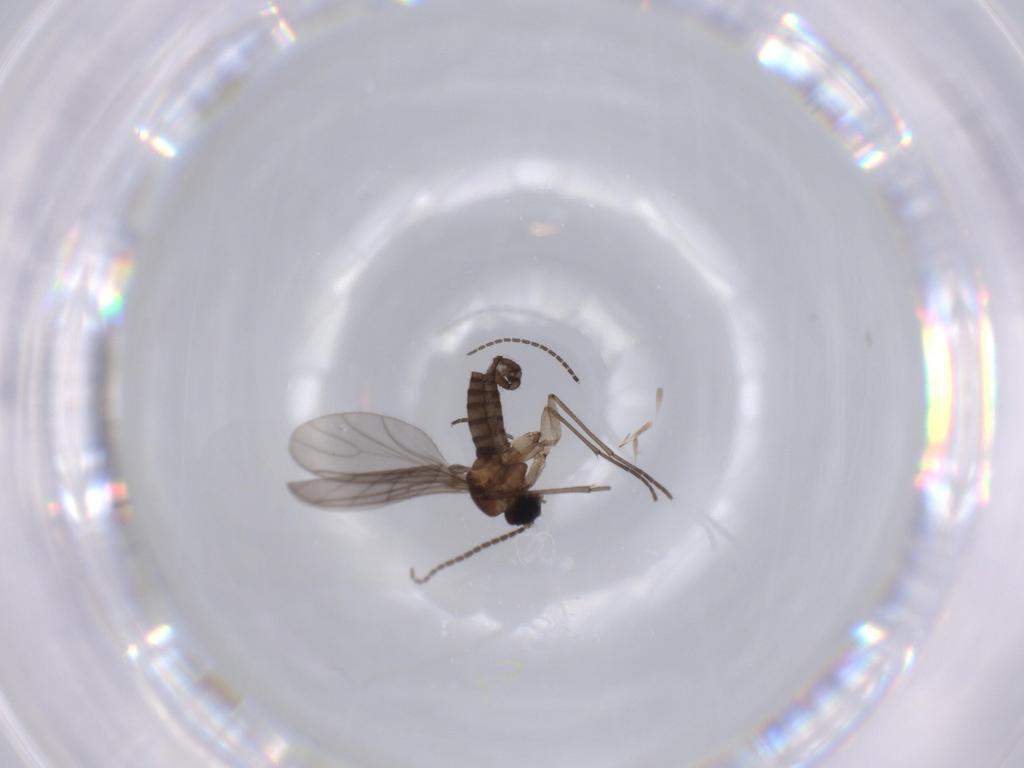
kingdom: Animalia
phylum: Arthropoda
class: Insecta
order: Diptera
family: Sciaridae
